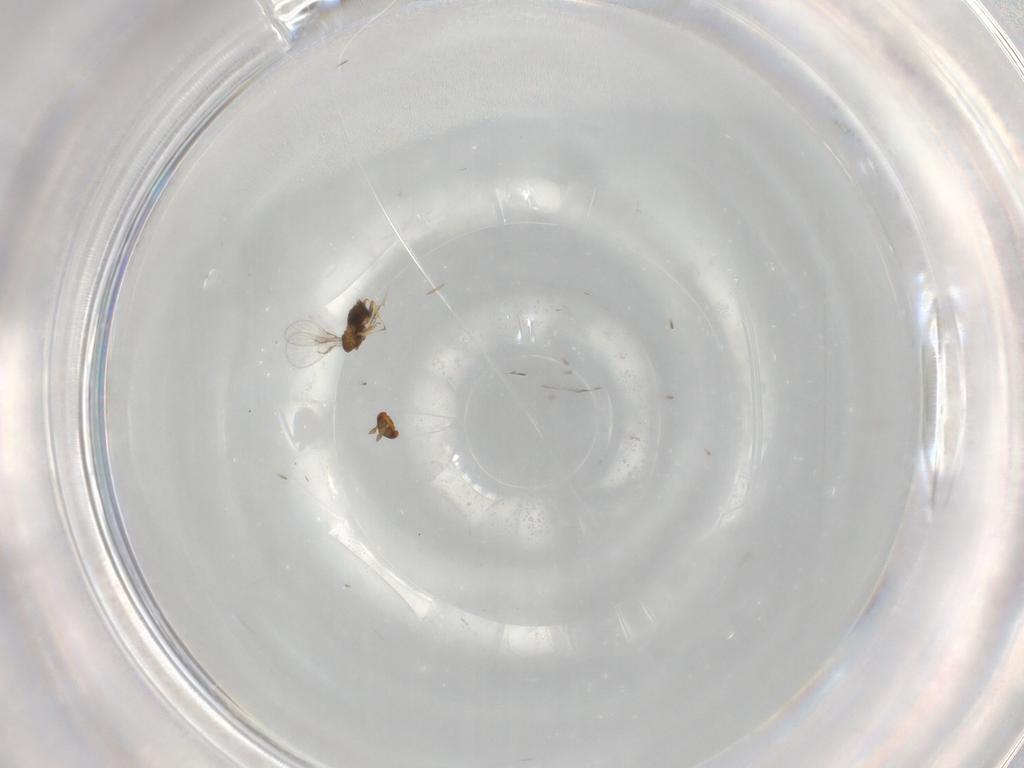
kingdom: Animalia
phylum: Arthropoda
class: Insecta
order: Hymenoptera
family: Trichogrammatidae
